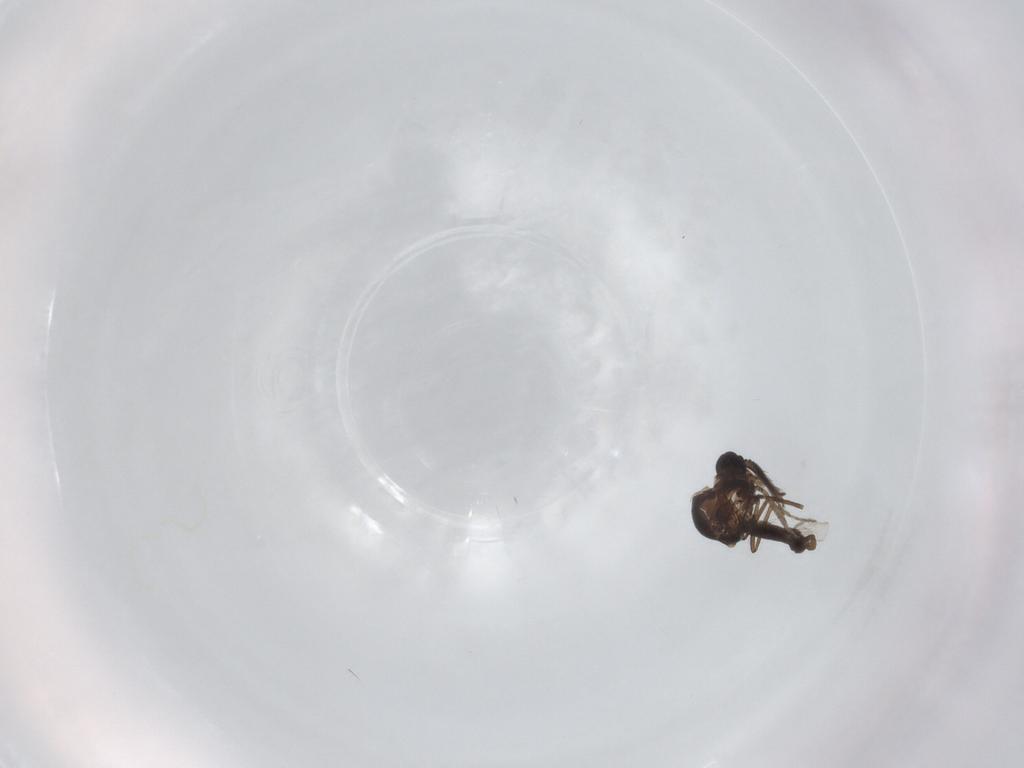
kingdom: Animalia
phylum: Arthropoda
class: Insecta
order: Diptera
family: Ceratopogonidae
